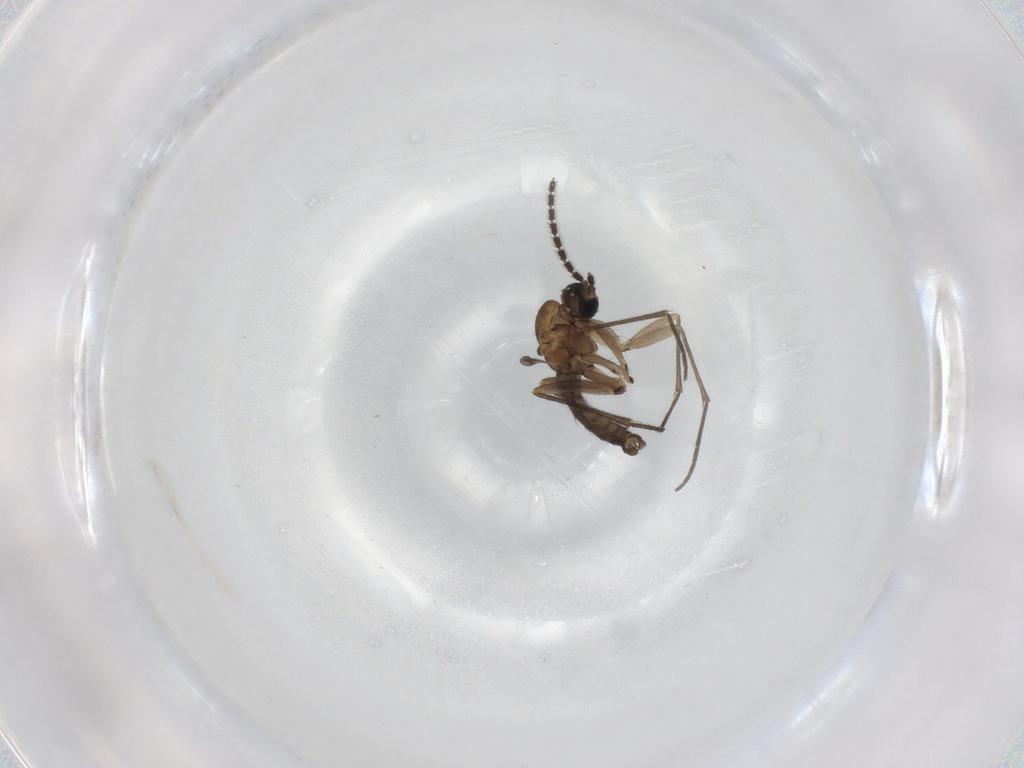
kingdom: Animalia
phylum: Arthropoda
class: Insecta
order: Diptera
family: Sciaridae
